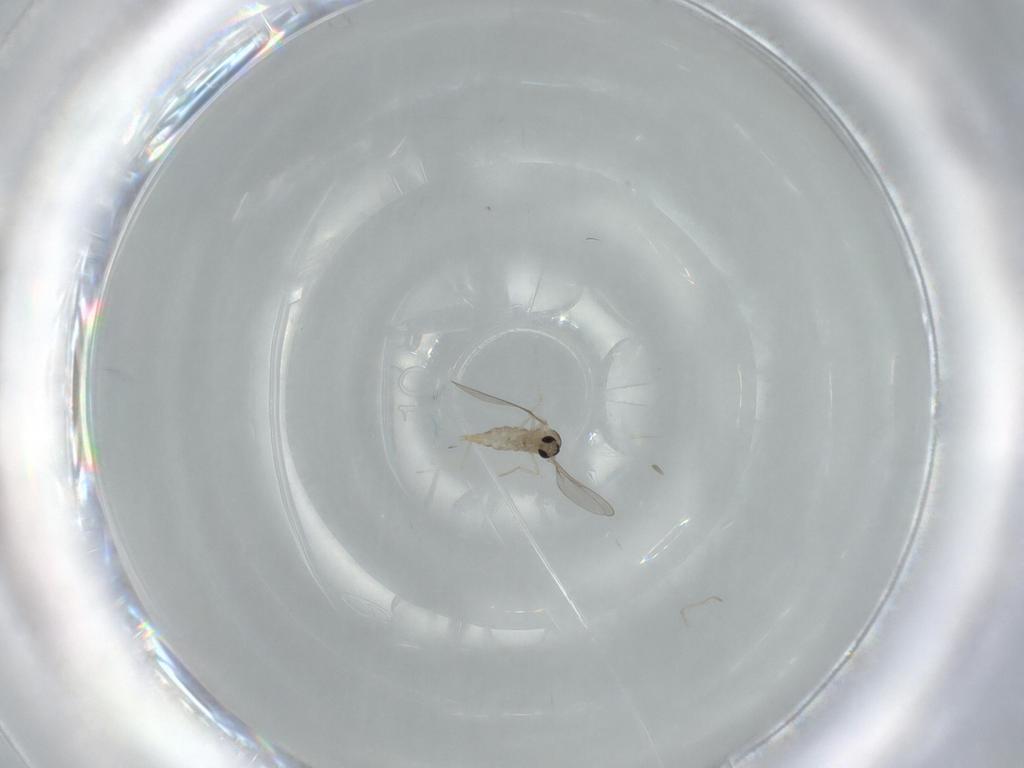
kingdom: Animalia
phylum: Arthropoda
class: Insecta
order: Diptera
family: Cecidomyiidae
